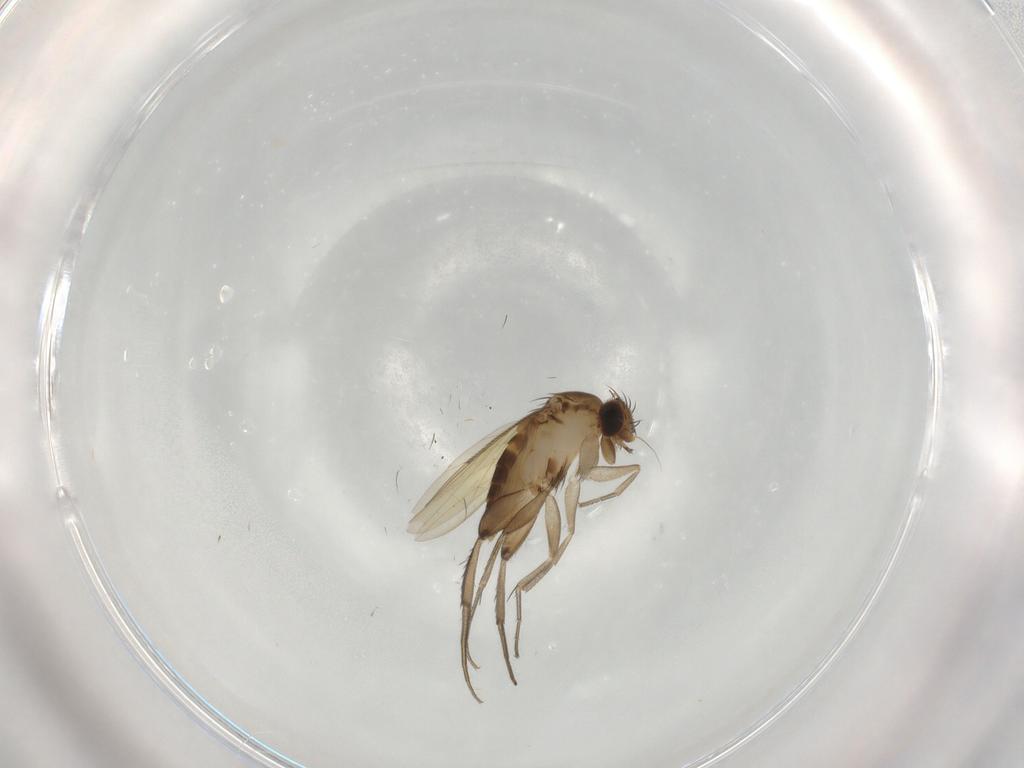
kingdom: Animalia
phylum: Arthropoda
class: Insecta
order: Diptera
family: Phoridae
